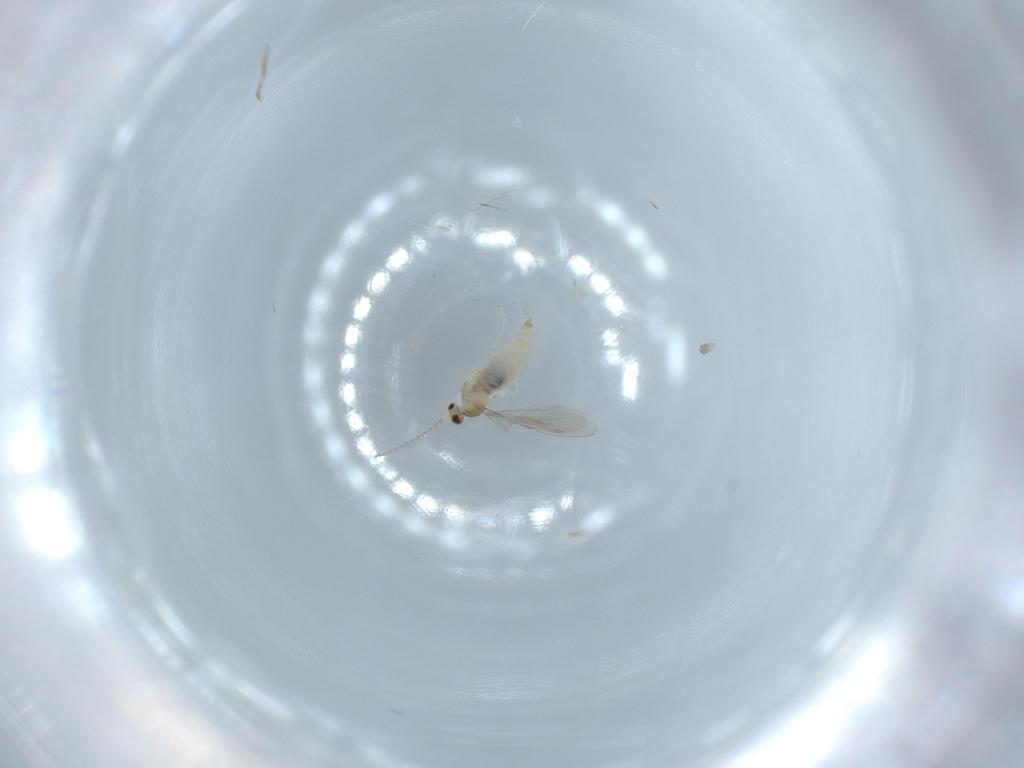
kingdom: Animalia
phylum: Arthropoda
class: Insecta
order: Diptera
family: Cecidomyiidae
